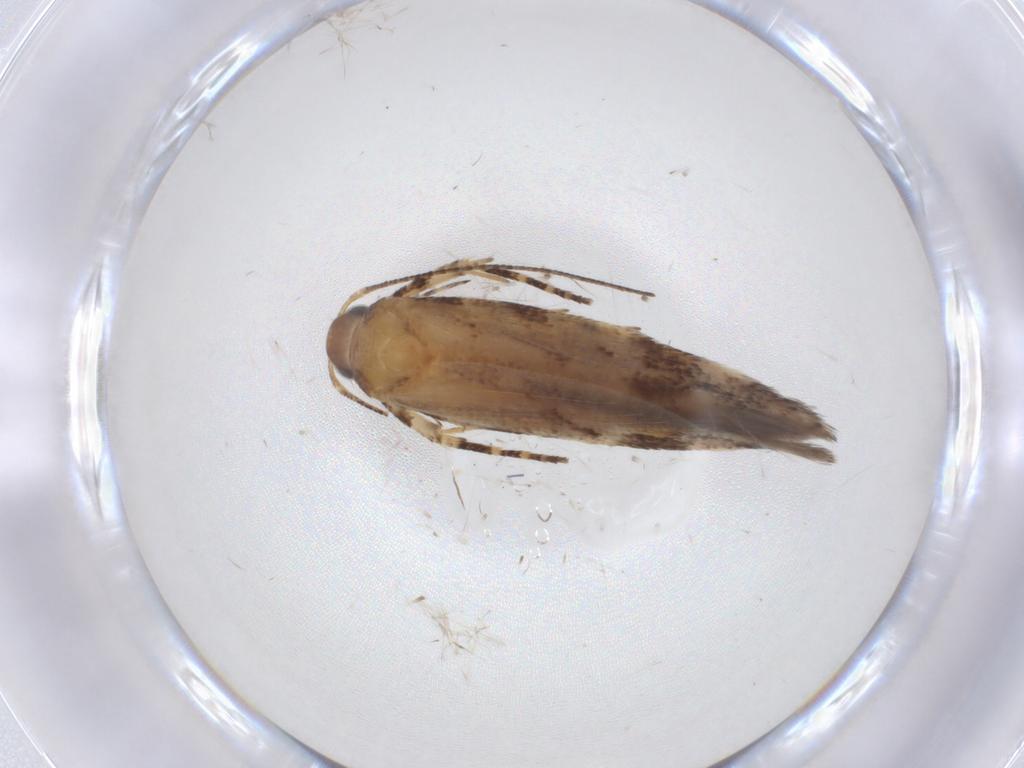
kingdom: Animalia
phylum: Arthropoda
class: Insecta
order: Lepidoptera
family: Gelechiidae
